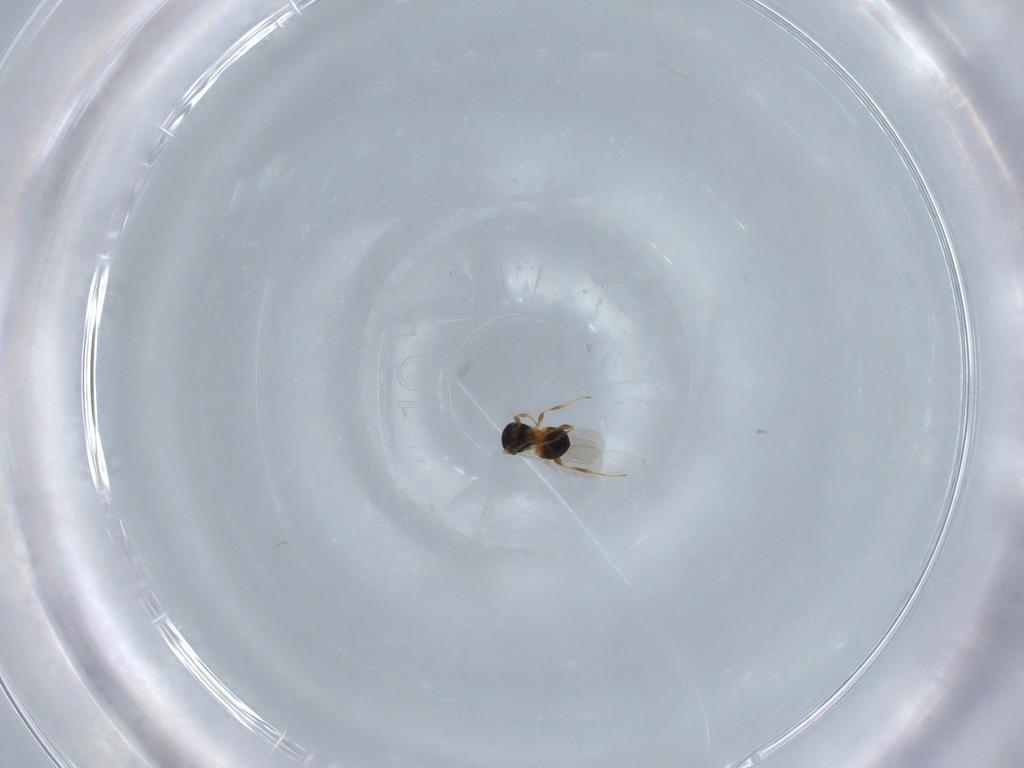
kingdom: Animalia
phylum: Arthropoda
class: Insecta
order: Hymenoptera
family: Platygastridae
